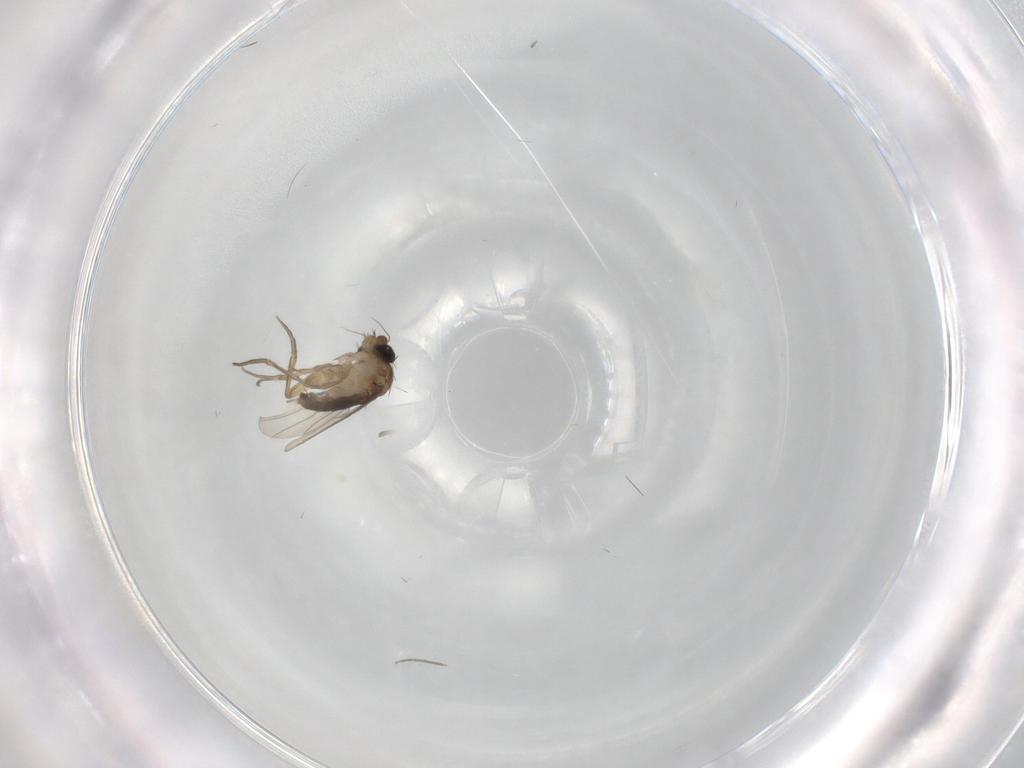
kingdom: Animalia
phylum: Arthropoda
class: Insecta
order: Diptera
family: Phoridae
